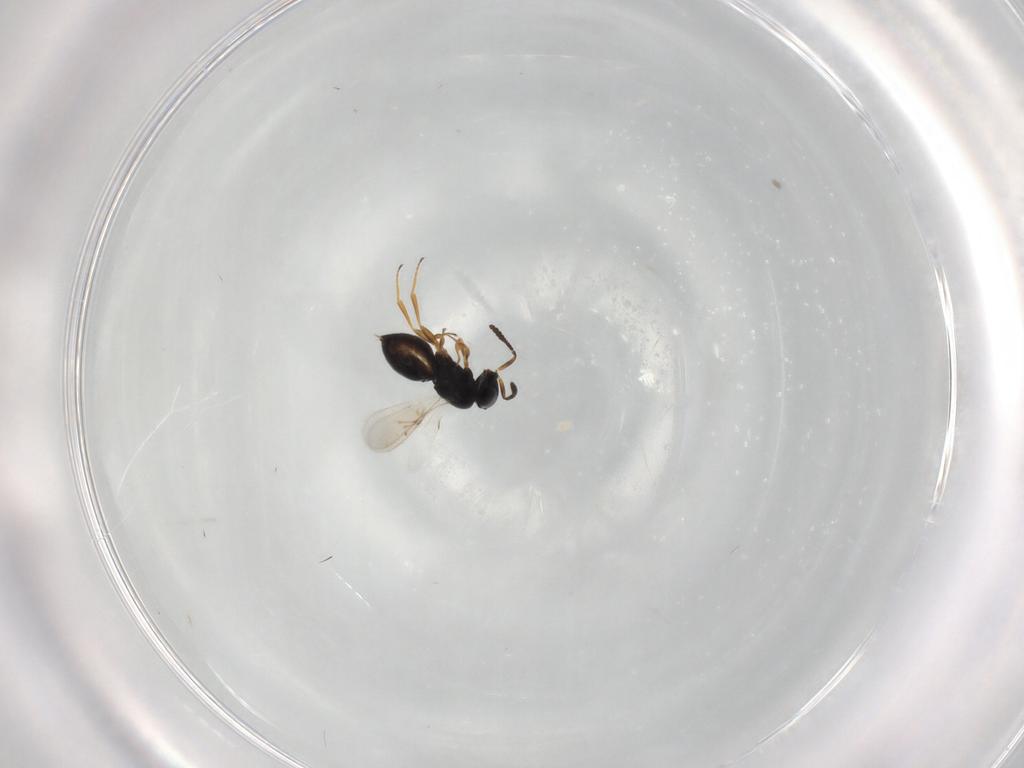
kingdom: Animalia
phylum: Arthropoda
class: Insecta
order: Hymenoptera
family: Scelionidae
